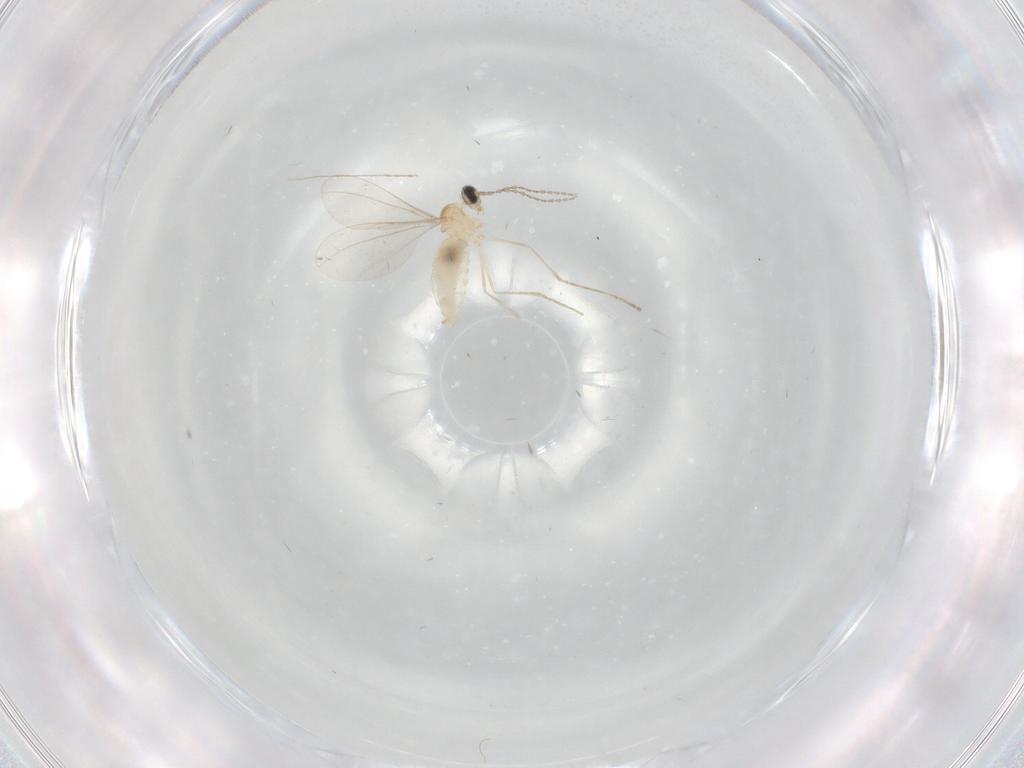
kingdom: Animalia
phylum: Arthropoda
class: Insecta
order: Diptera
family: Cecidomyiidae
